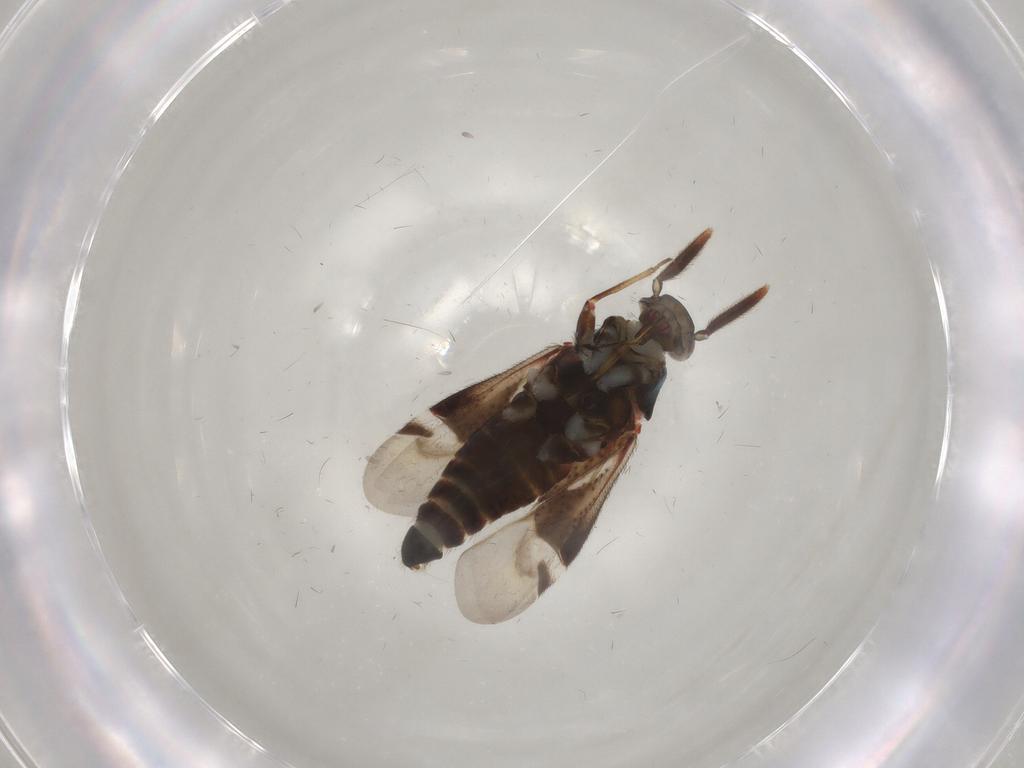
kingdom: Animalia
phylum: Arthropoda
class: Insecta
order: Hemiptera
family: Miridae
